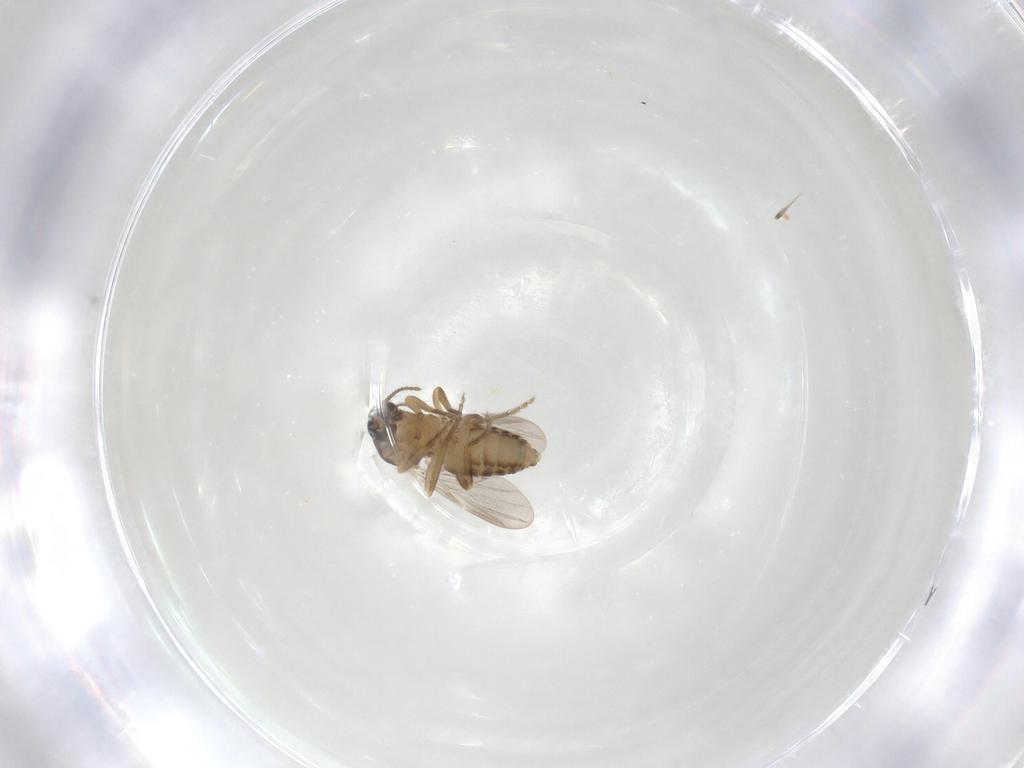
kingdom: Animalia
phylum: Arthropoda
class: Insecta
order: Diptera
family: Ceratopogonidae
